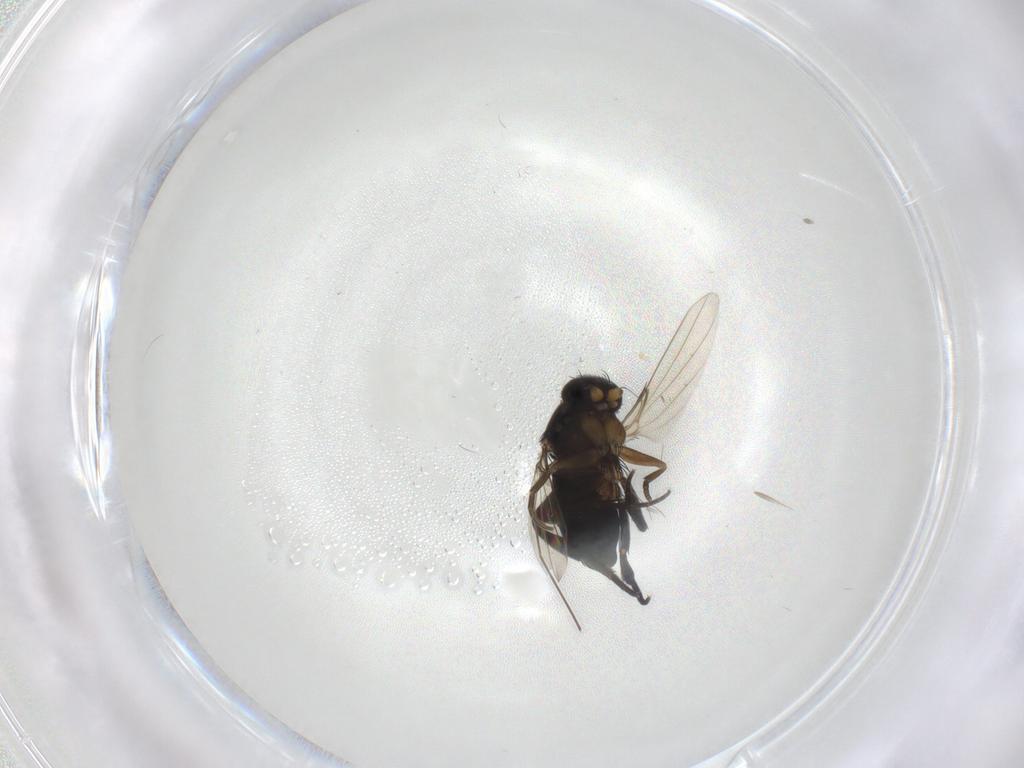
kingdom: Animalia
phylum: Arthropoda
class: Insecta
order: Diptera
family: Phoridae
